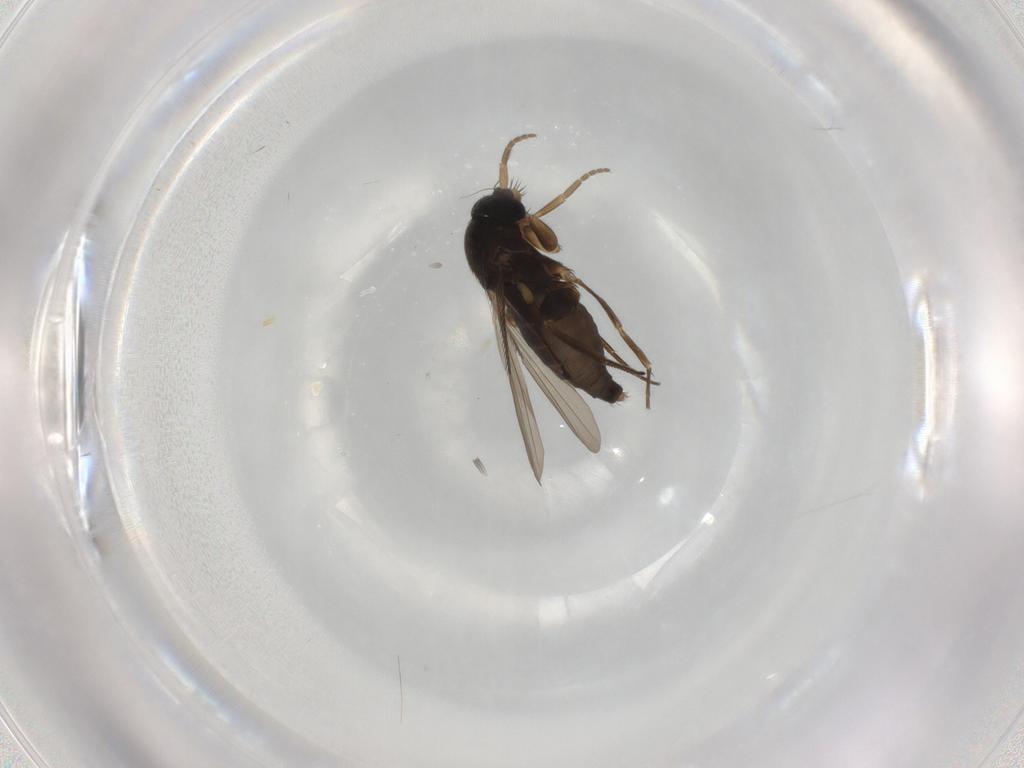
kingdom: Animalia
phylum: Arthropoda
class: Insecta
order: Diptera
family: Phoridae
